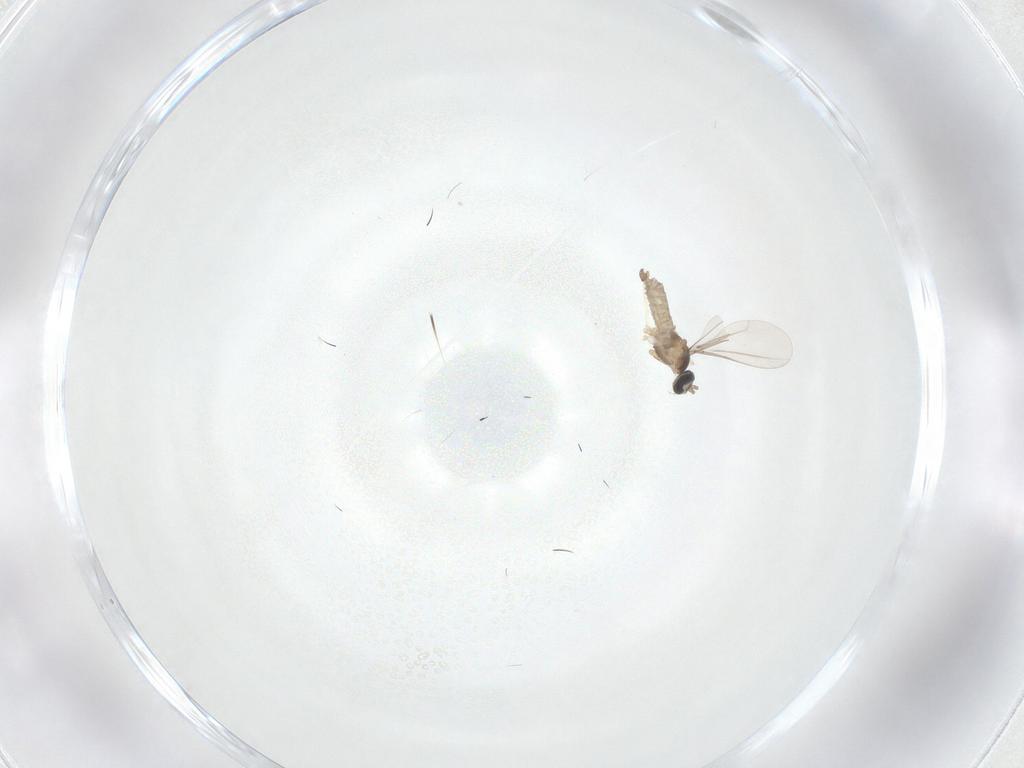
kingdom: Animalia
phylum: Arthropoda
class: Insecta
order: Diptera
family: Cecidomyiidae
